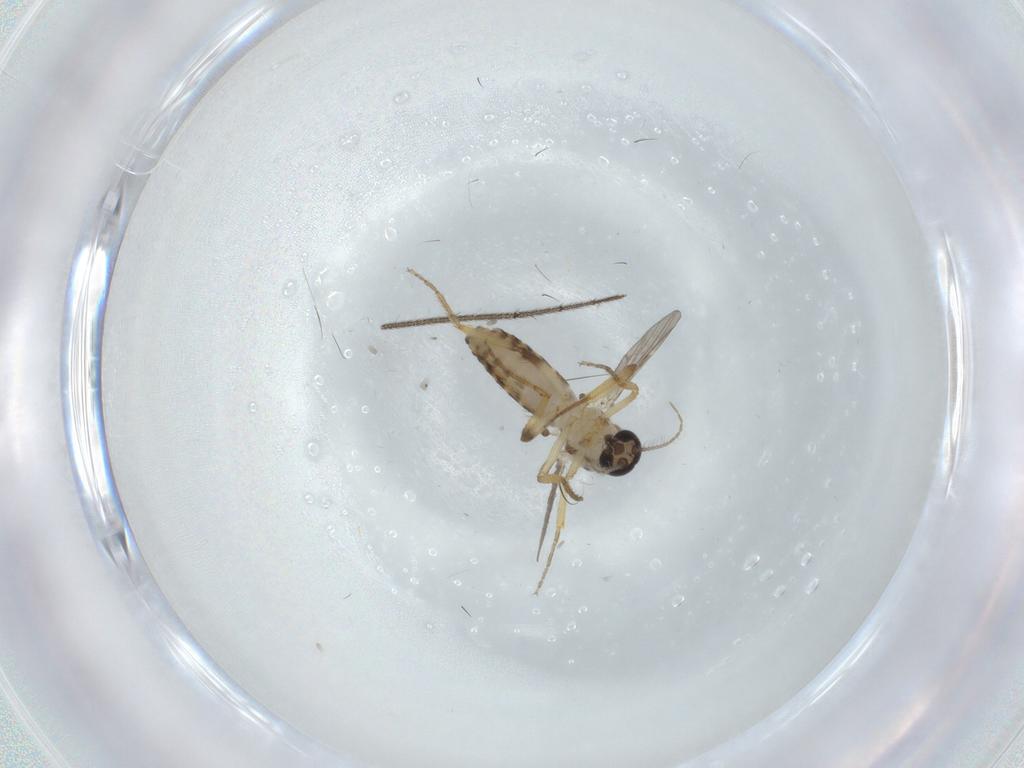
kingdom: Animalia
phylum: Arthropoda
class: Insecta
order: Diptera
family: Ditomyiidae
